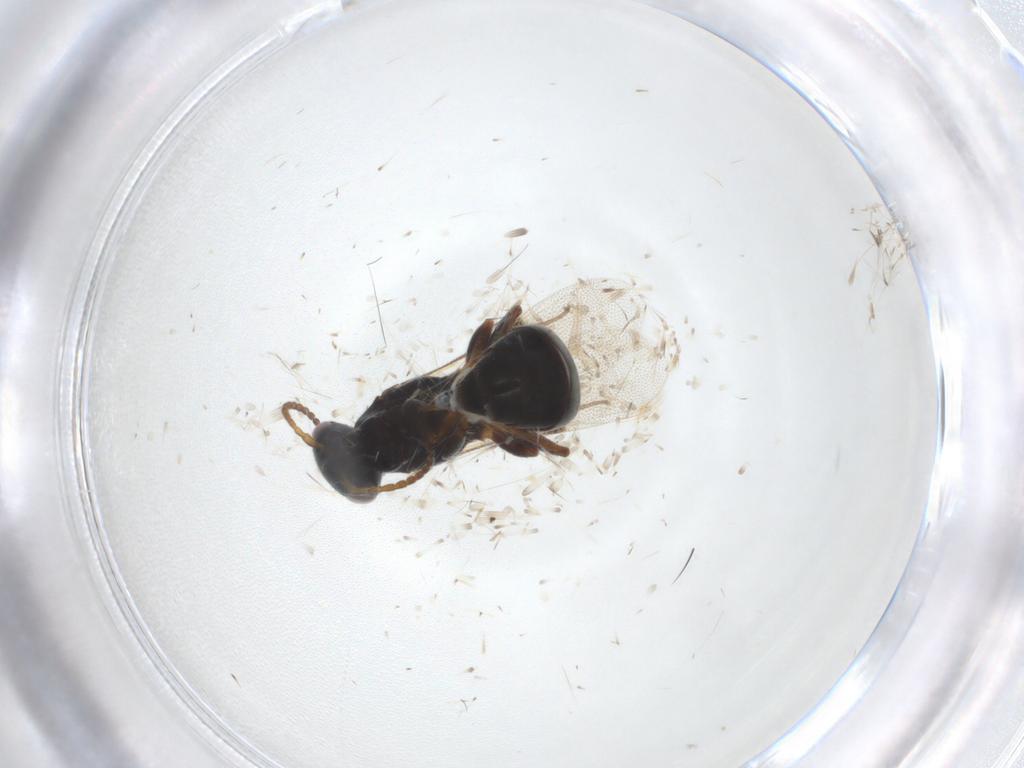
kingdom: Animalia
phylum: Arthropoda
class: Insecta
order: Hymenoptera
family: Bethylidae
